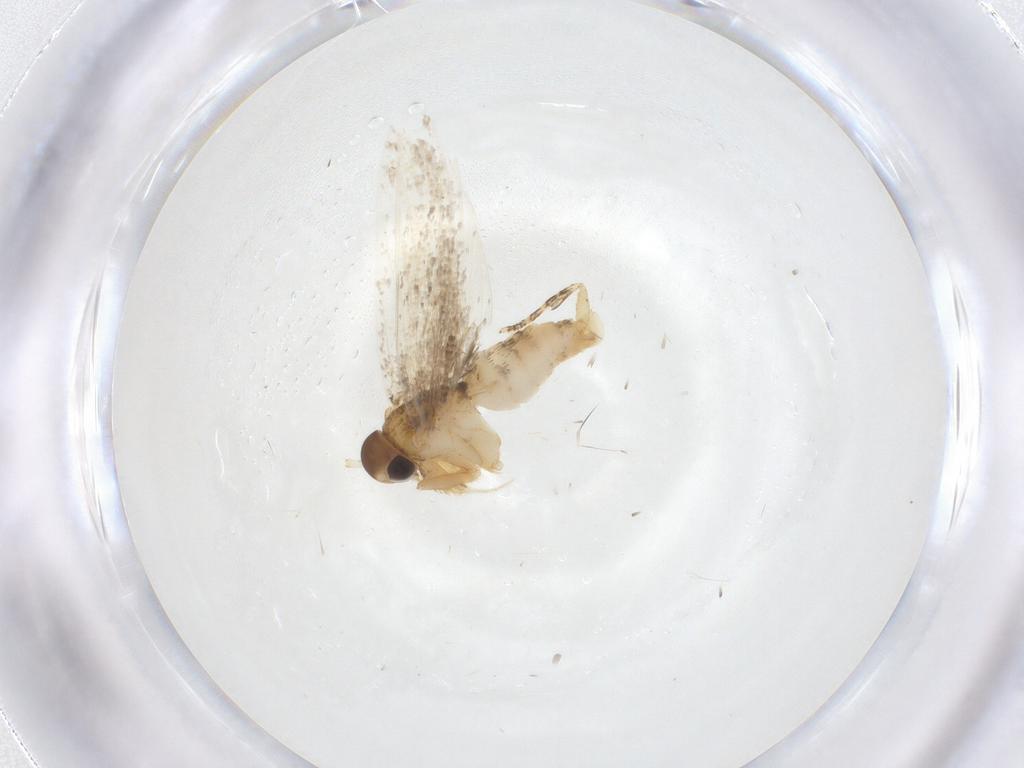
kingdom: Animalia
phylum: Arthropoda
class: Insecta
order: Lepidoptera
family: Oecophoridae
